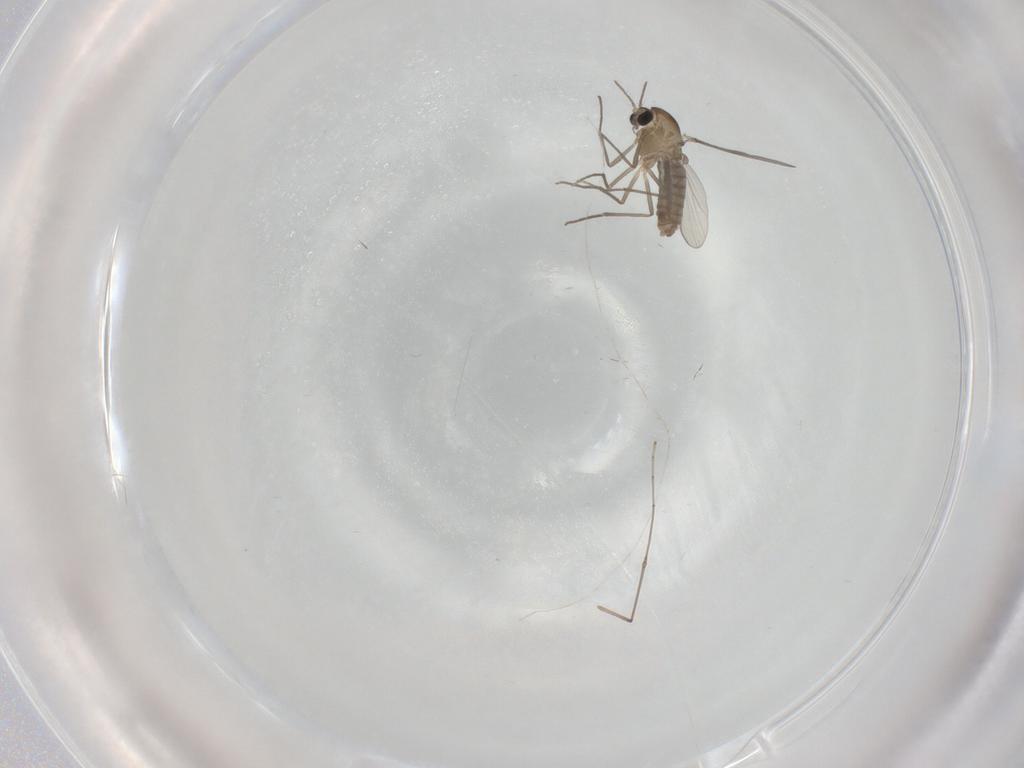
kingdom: Animalia
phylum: Arthropoda
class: Insecta
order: Diptera
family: Cecidomyiidae
